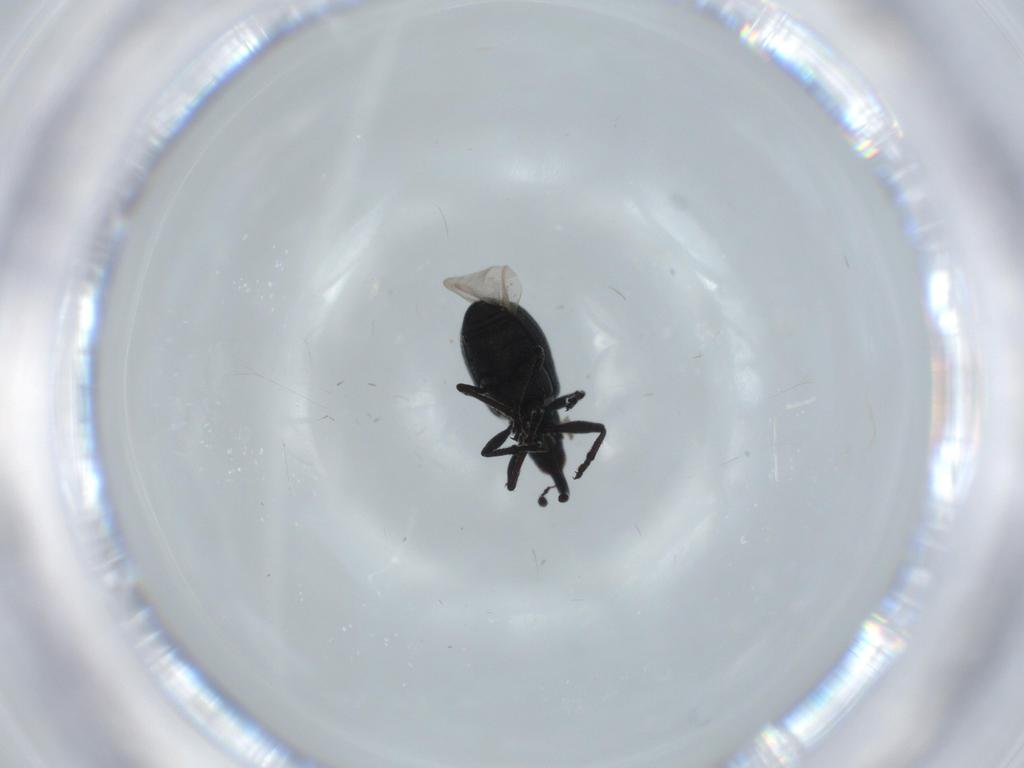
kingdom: Animalia
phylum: Arthropoda
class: Insecta
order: Coleoptera
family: Brentidae
